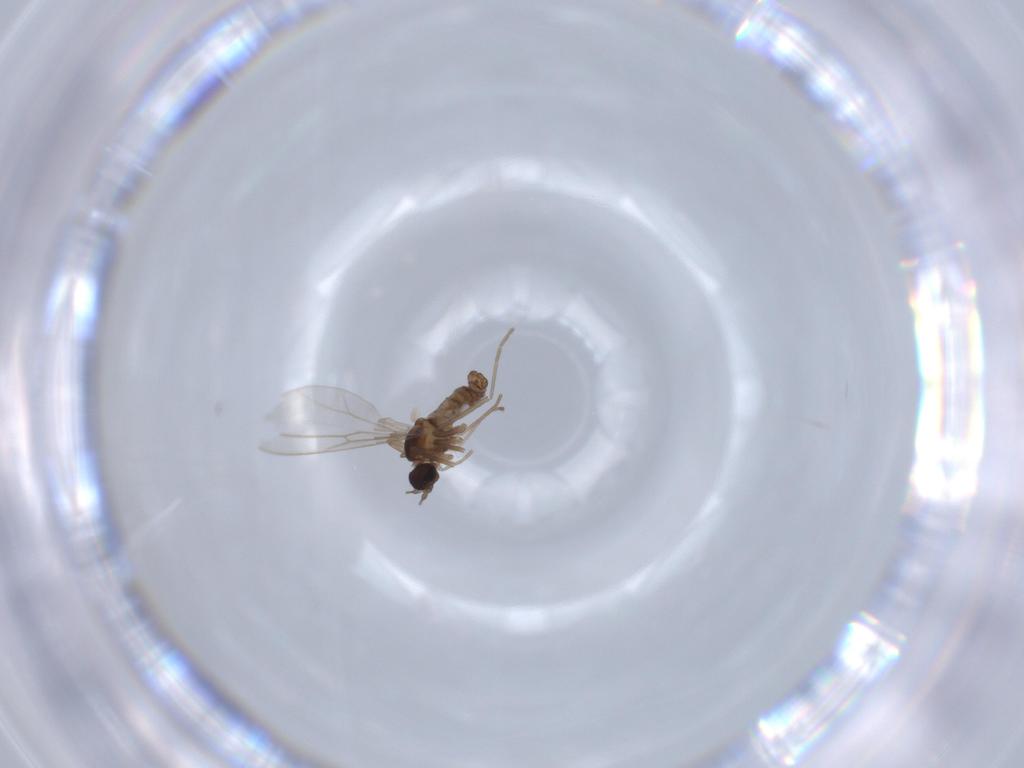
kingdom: Animalia
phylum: Arthropoda
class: Insecta
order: Diptera
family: Cecidomyiidae
